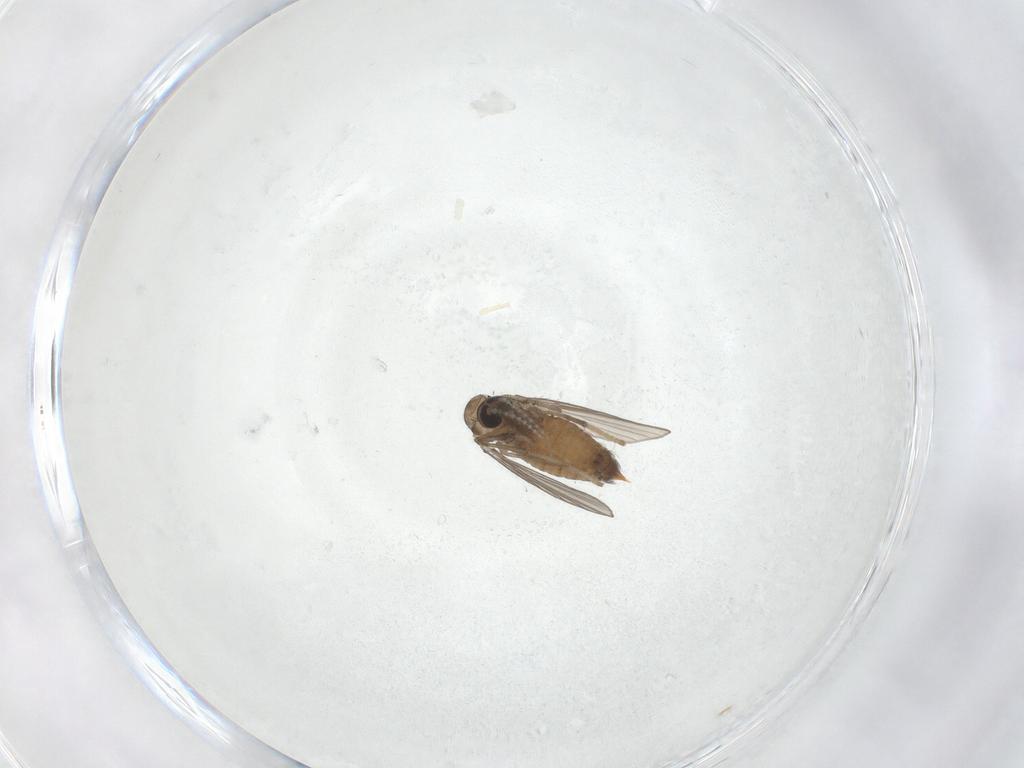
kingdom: Animalia
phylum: Arthropoda
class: Insecta
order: Diptera
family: Psychodidae
